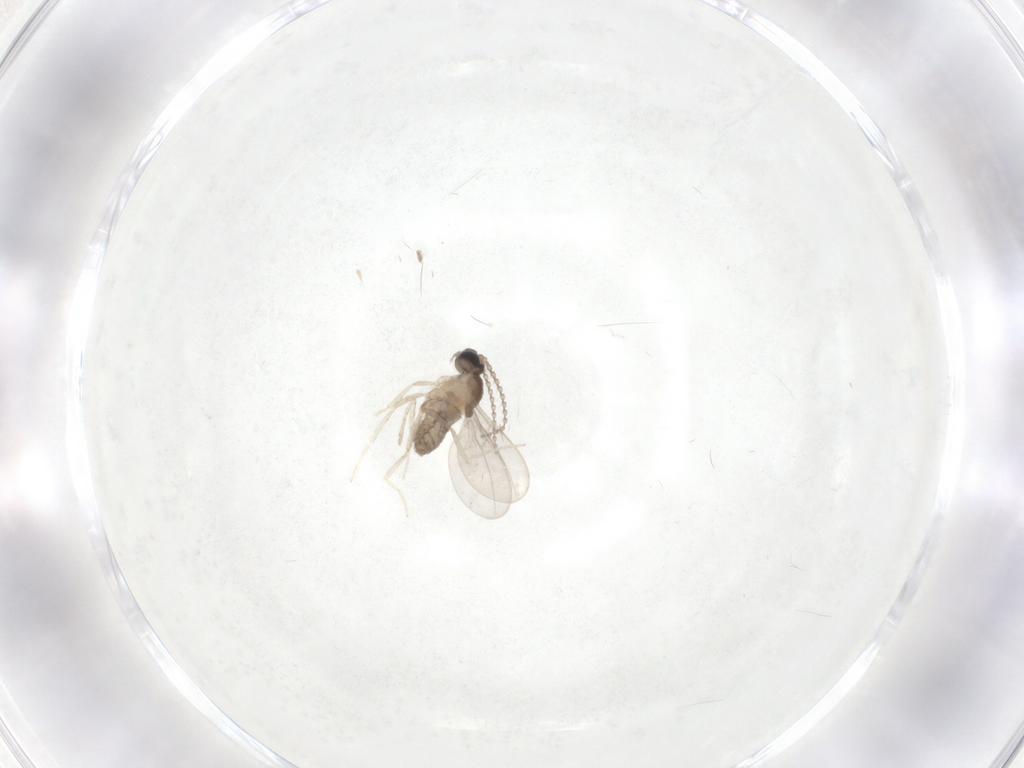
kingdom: Animalia
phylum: Arthropoda
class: Insecta
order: Diptera
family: Cecidomyiidae
